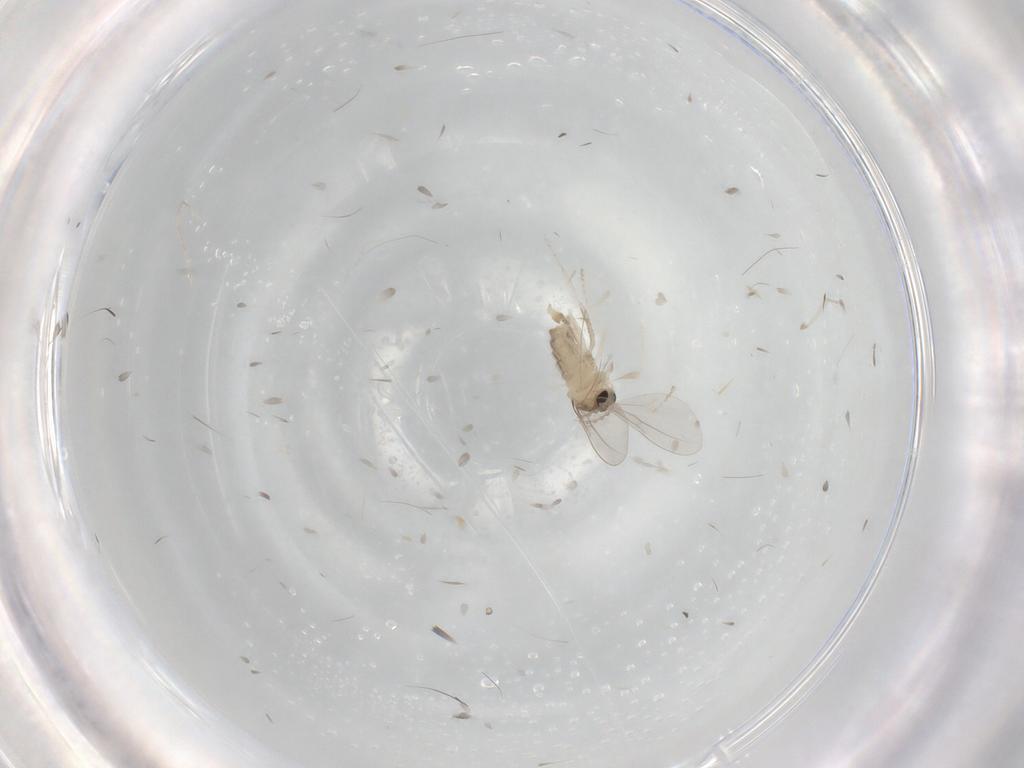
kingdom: Animalia
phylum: Arthropoda
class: Insecta
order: Diptera
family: Cecidomyiidae
